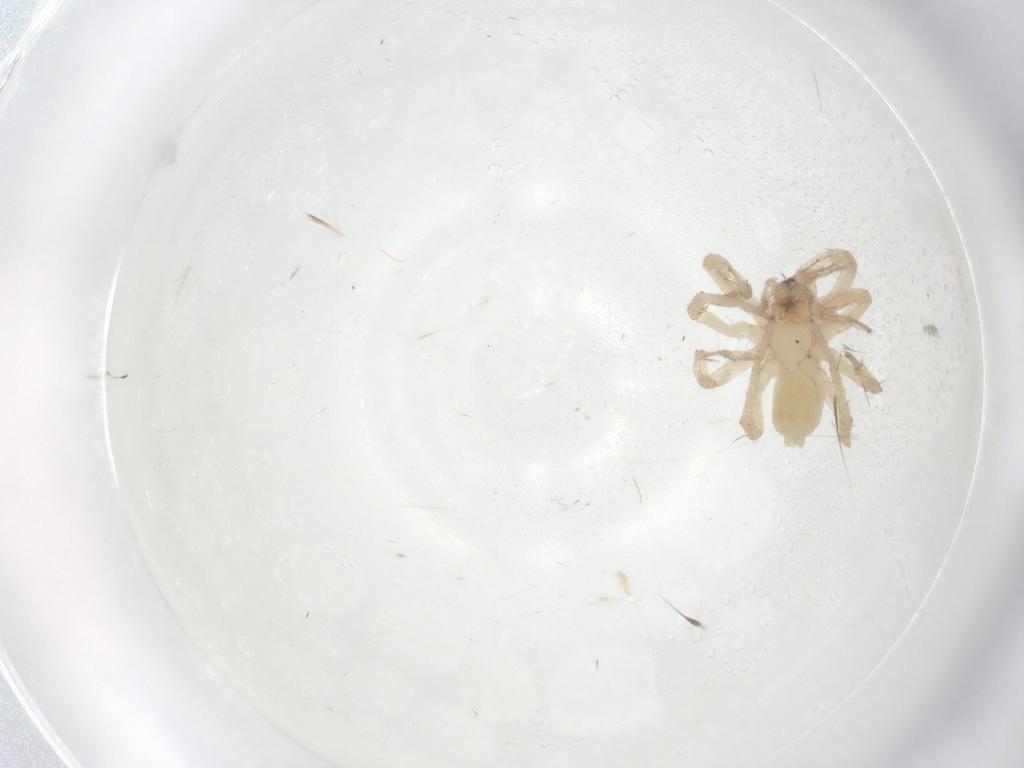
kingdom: Animalia
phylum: Arthropoda
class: Arachnida
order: Araneae
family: Anyphaenidae
